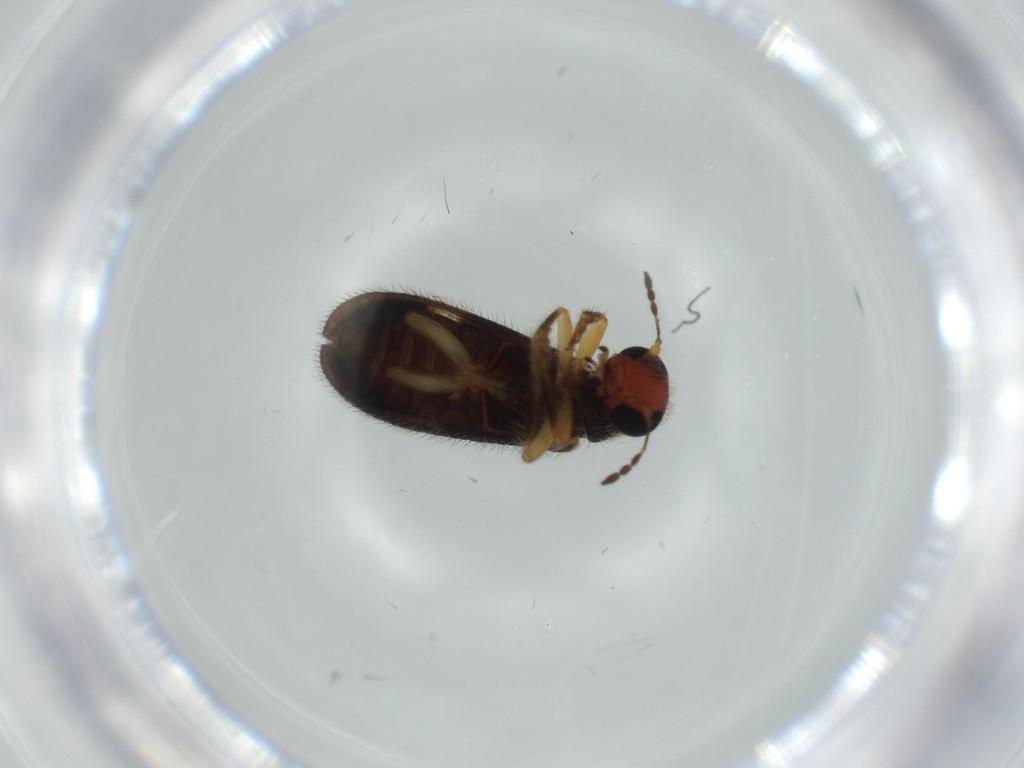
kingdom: Animalia
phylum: Arthropoda
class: Insecta
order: Coleoptera
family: Cleridae
